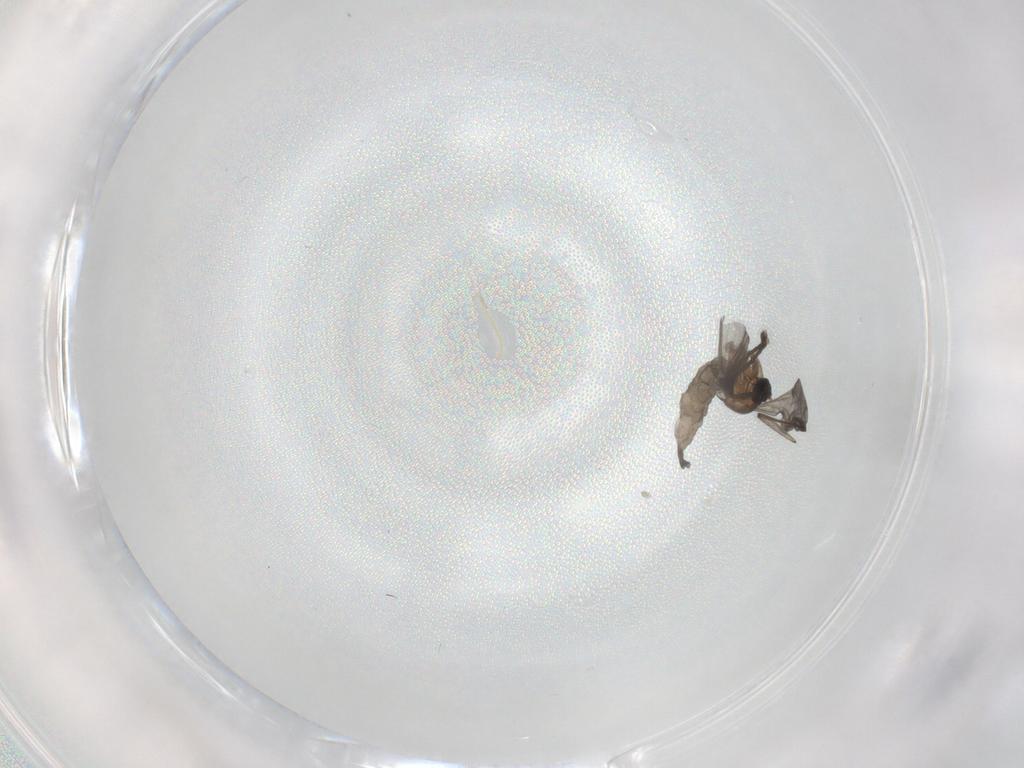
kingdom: Animalia
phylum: Arthropoda
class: Insecta
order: Diptera
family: Sciaridae
